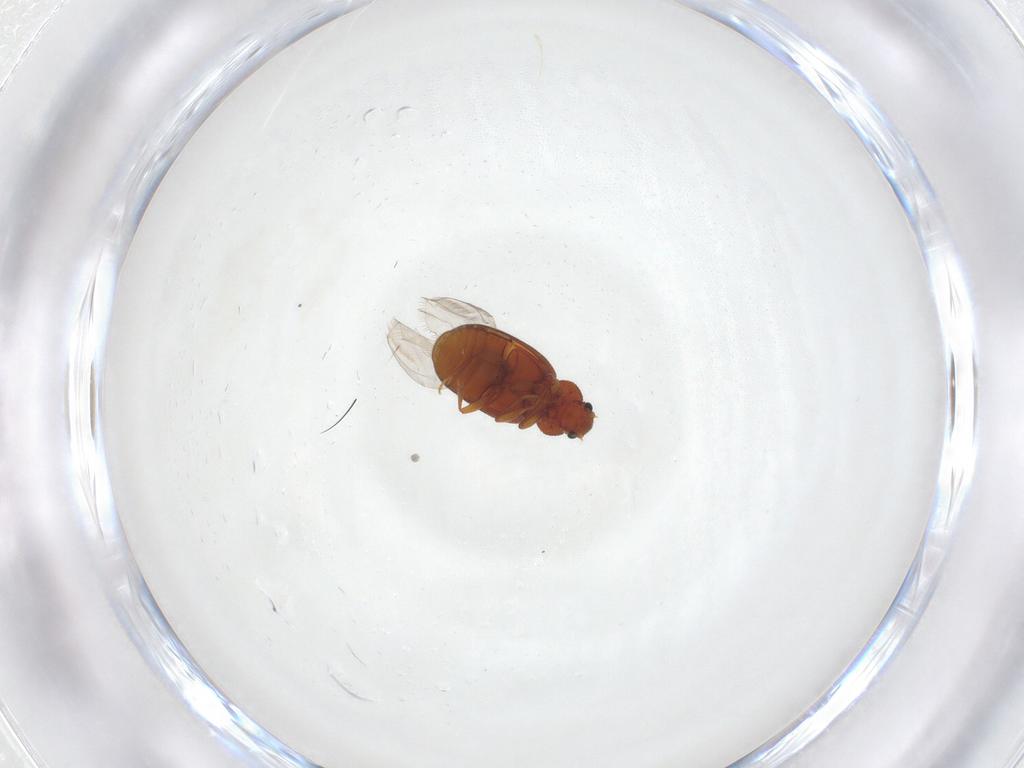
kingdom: Animalia
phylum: Arthropoda
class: Insecta
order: Coleoptera
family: Latridiidae
